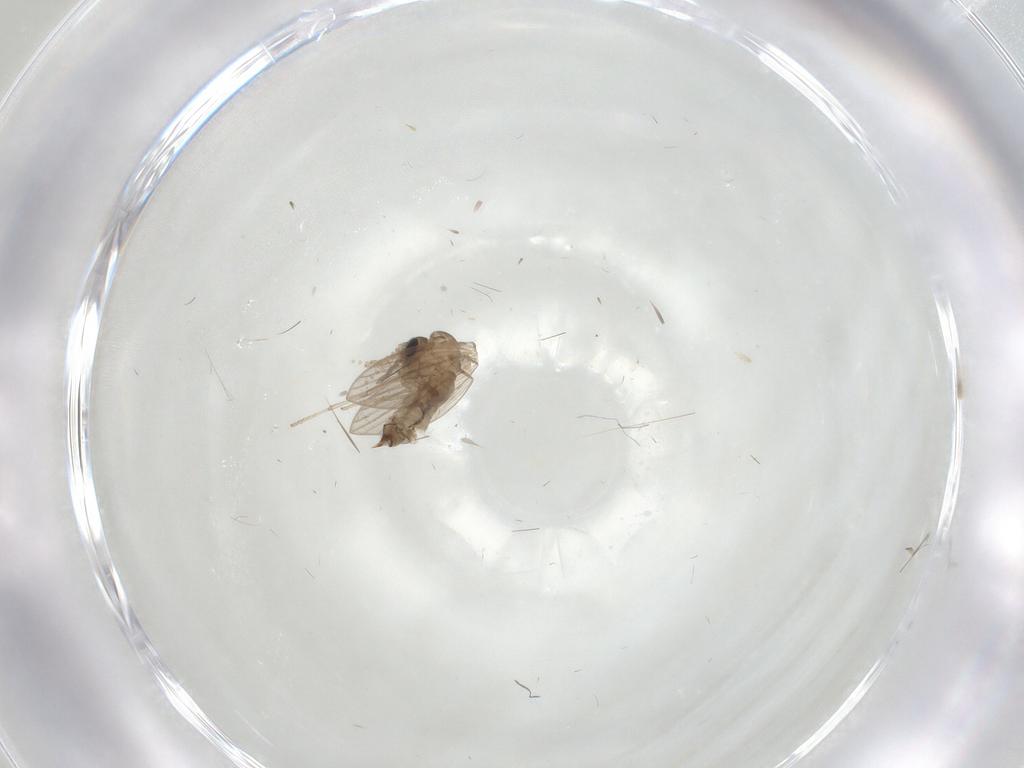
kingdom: Animalia
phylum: Arthropoda
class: Insecta
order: Diptera
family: Psychodidae
